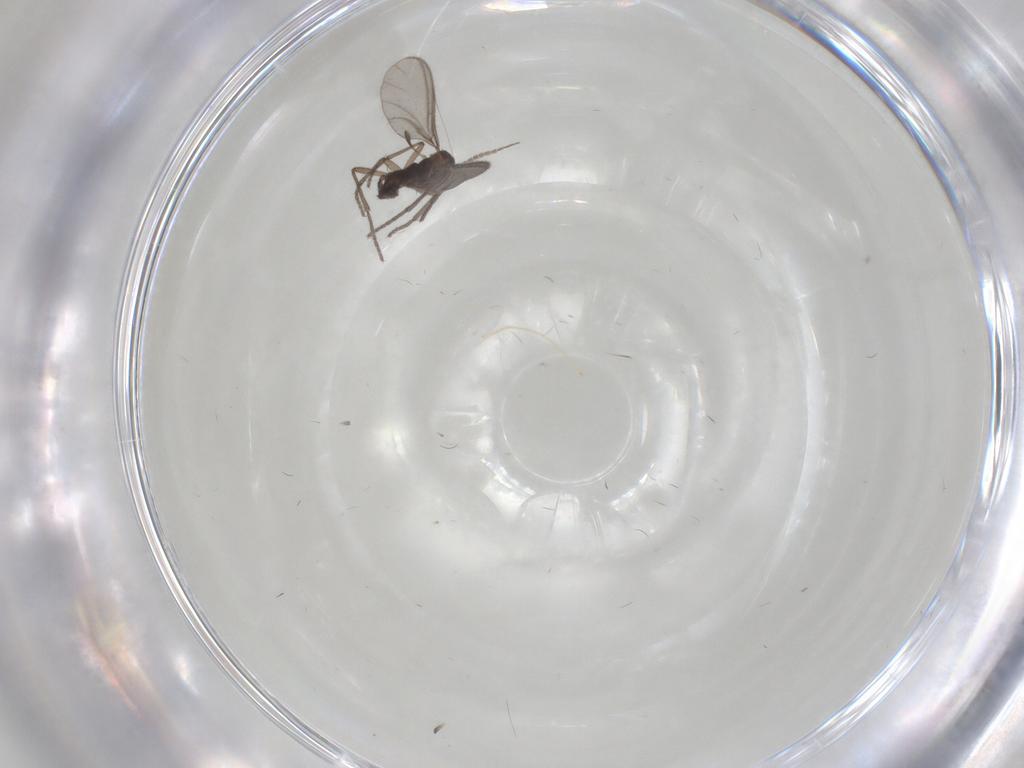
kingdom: Animalia
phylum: Arthropoda
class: Insecta
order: Diptera
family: Sciaridae
